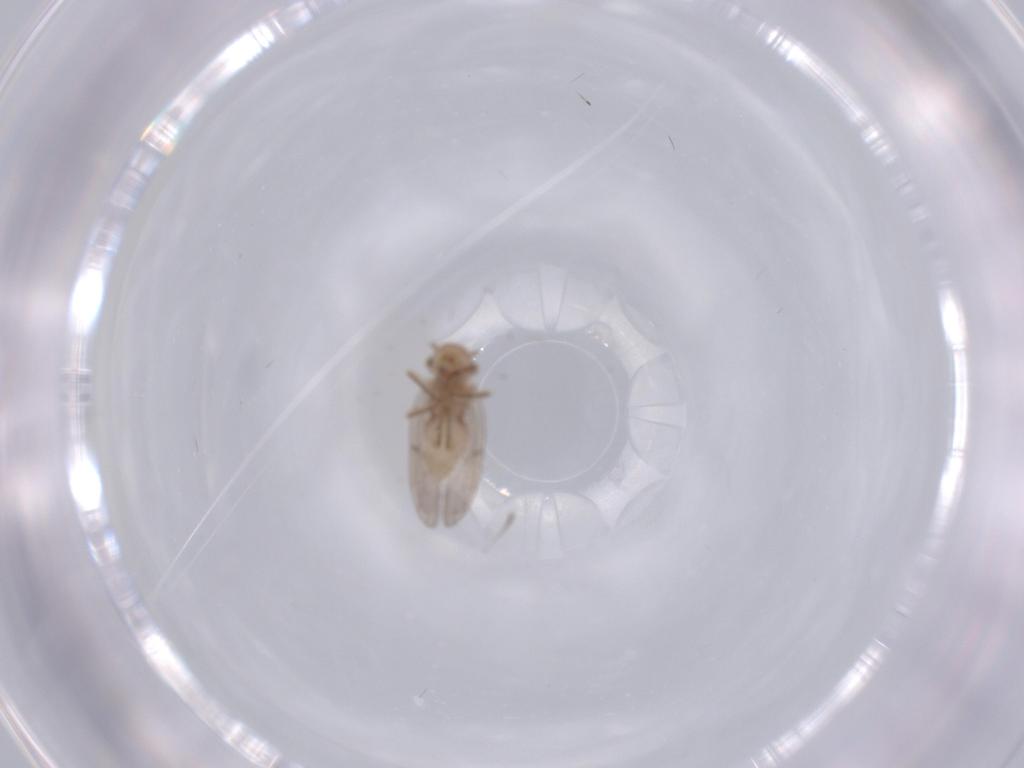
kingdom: Animalia
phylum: Arthropoda
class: Insecta
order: Psocodea
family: Ectopsocidae
